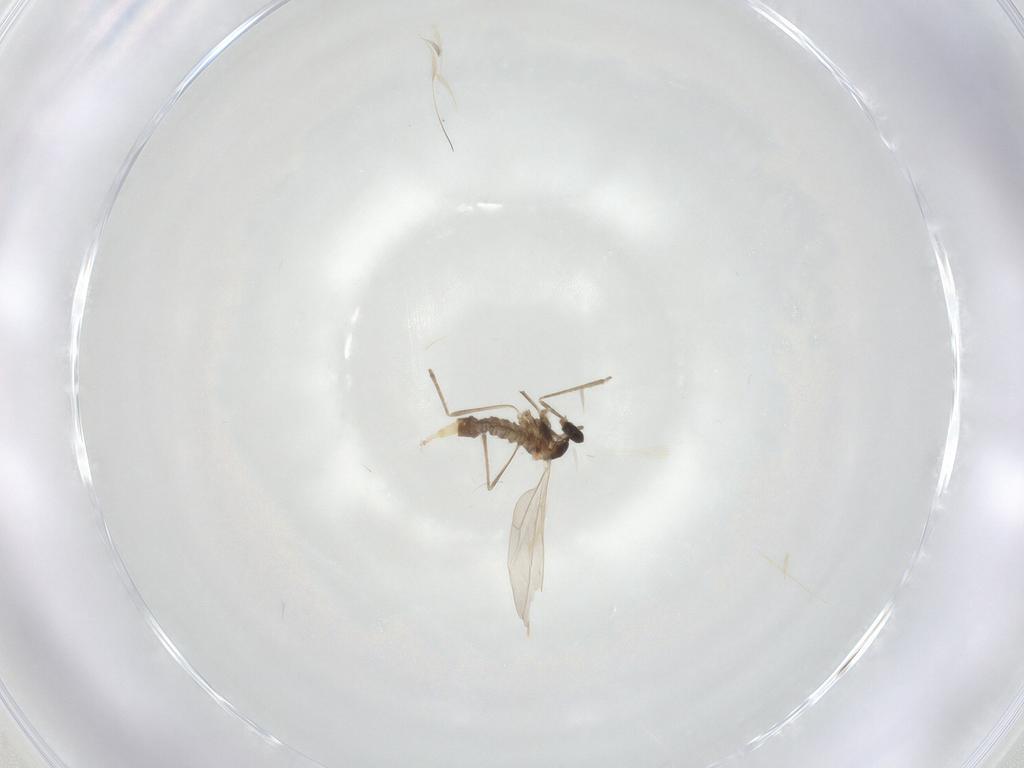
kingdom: Animalia
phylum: Arthropoda
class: Insecta
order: Diptera
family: Cecidomyiidae
